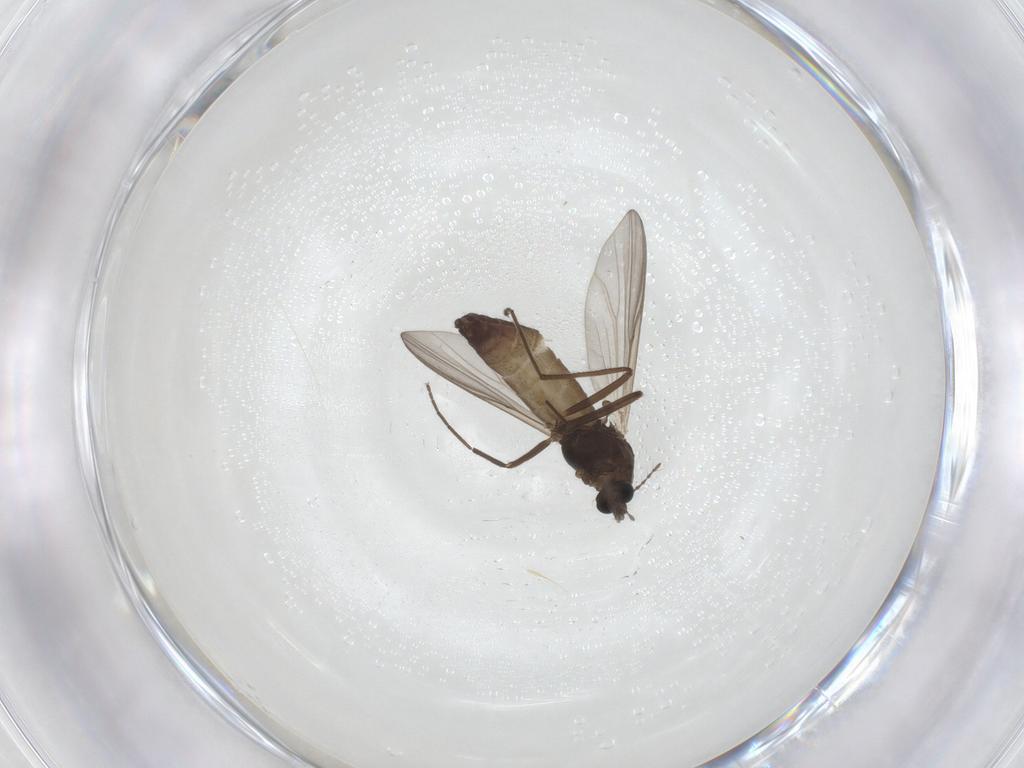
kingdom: Animalia
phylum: Arthropoda
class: Insecta
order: Diptera
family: Chironomidae
